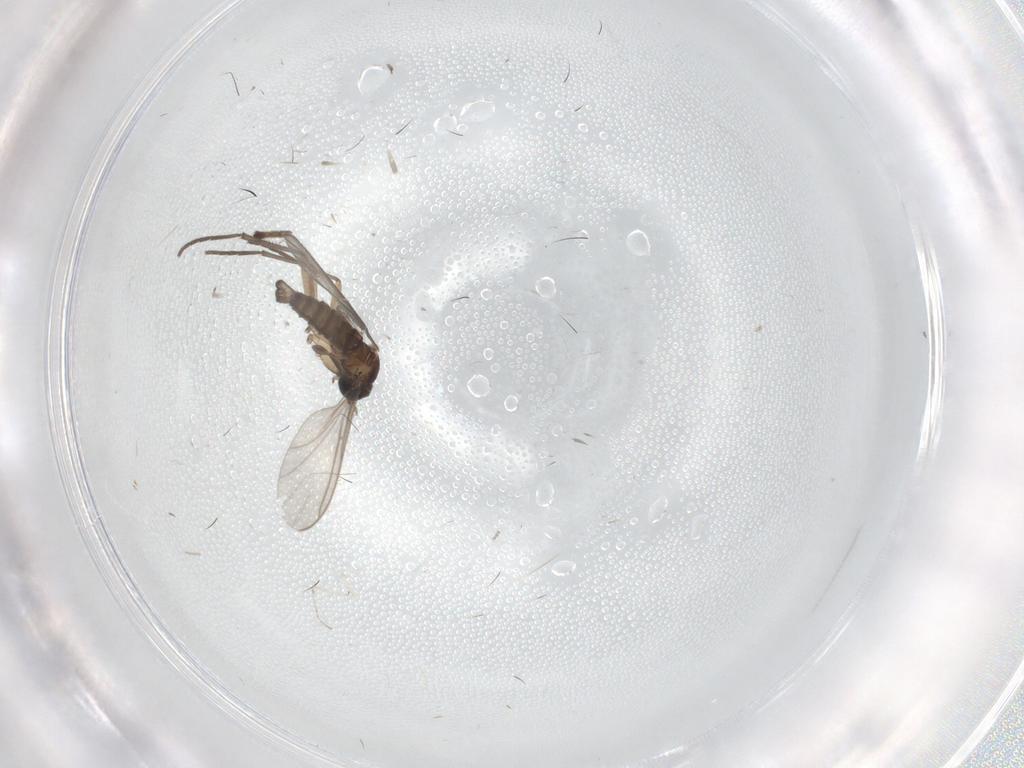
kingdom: Animalia
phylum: Arthropoda
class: Insecta
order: Diptera
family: Sciaridae
